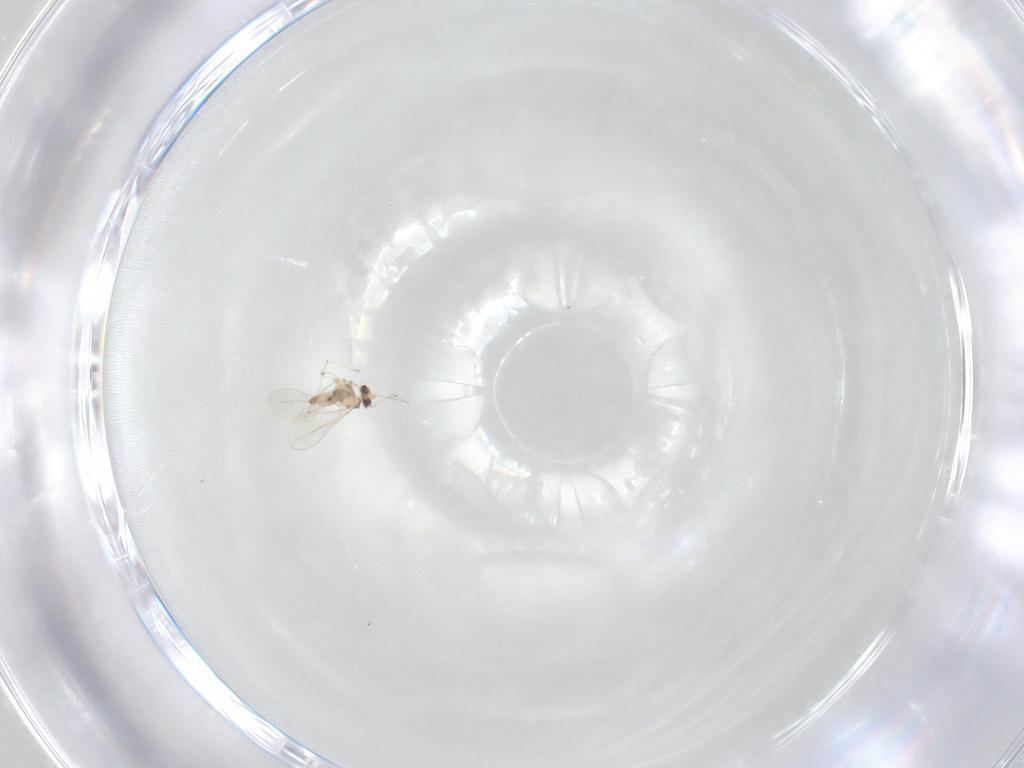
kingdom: Animalia
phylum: Arthropoda
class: Insecta
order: Diptera
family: Cecidomyiidae
